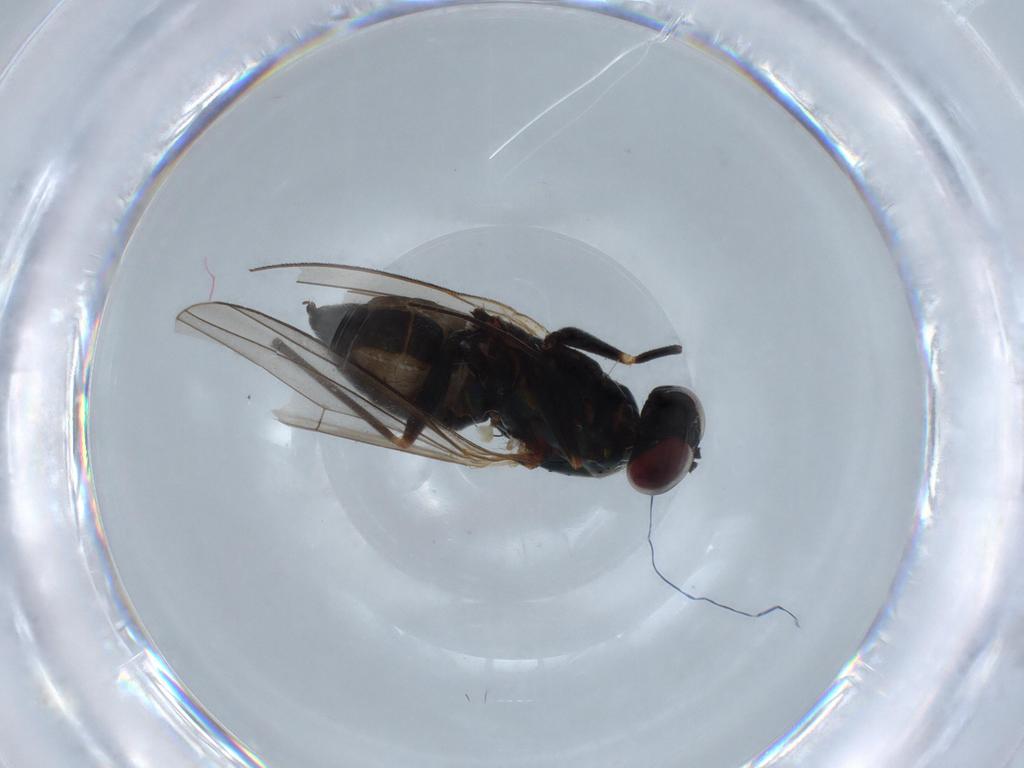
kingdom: Animalia
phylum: Arthropoda
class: Insecta
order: Diptera
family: Dolichopodidae
